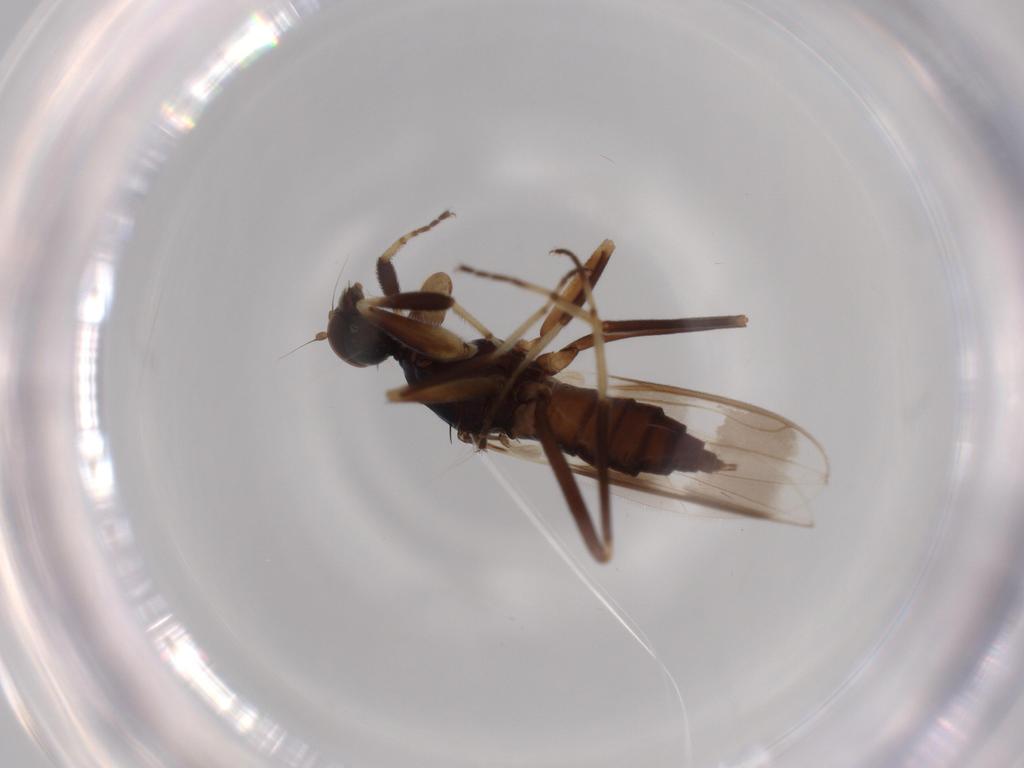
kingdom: Animalia
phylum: Arthropoda
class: Insecta
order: Diptera
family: Hybotidae
